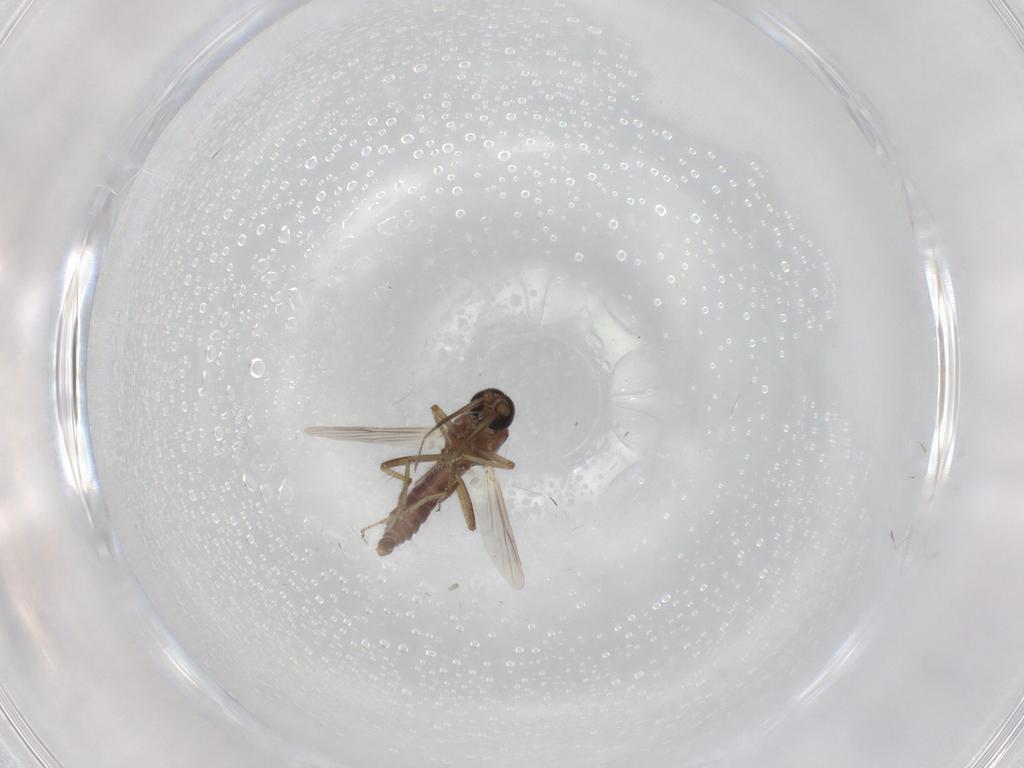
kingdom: Animalia
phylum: Arthropoda
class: Insecta
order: Diptera
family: Ceratopogonidae
